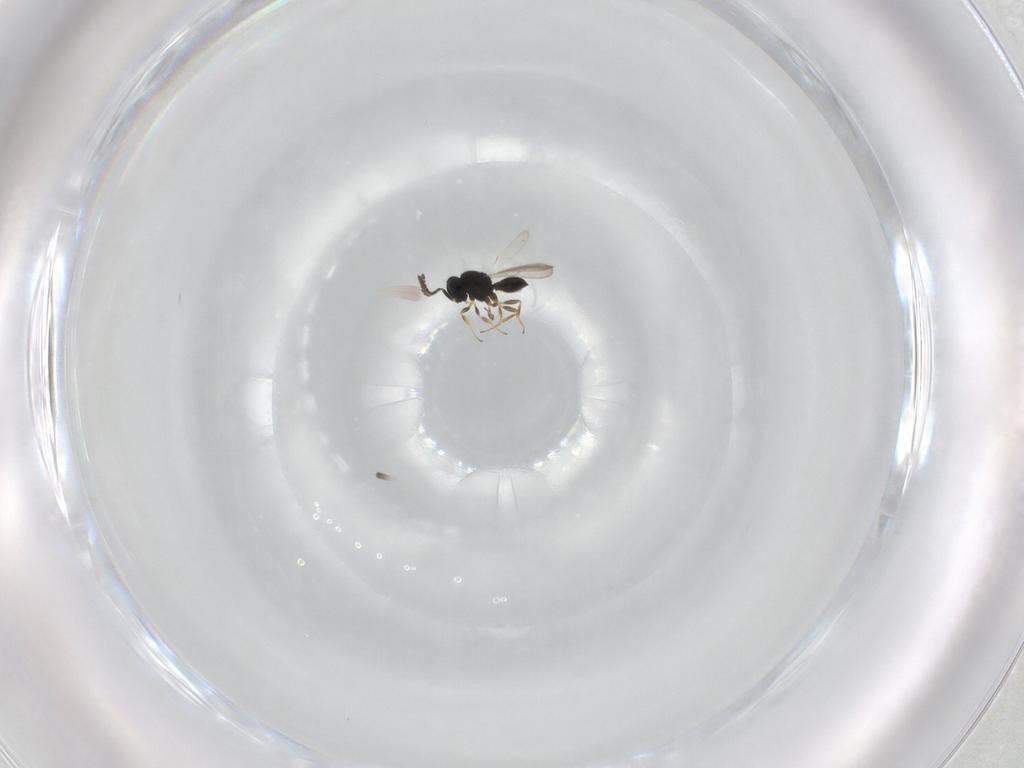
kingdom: Animalia
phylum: Arthropoda
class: Insecta
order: Hymenoptera
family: Scelionidae
